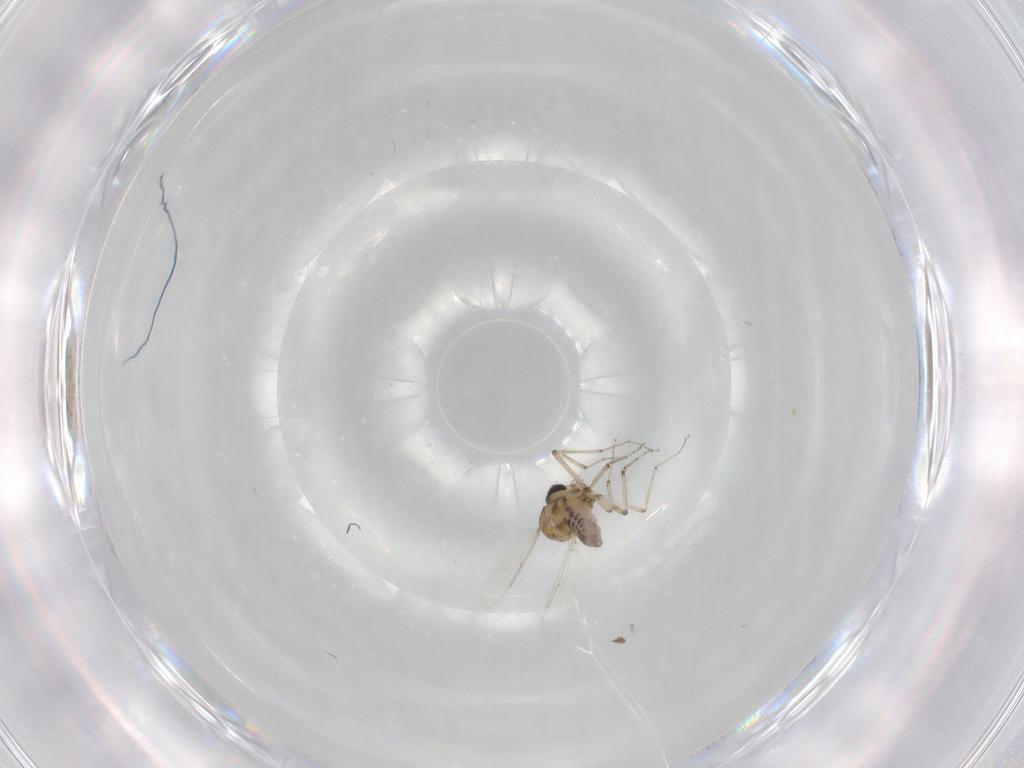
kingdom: Animalia
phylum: Arthropoda
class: Insecta
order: Diptera
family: Ceratopogonidae
